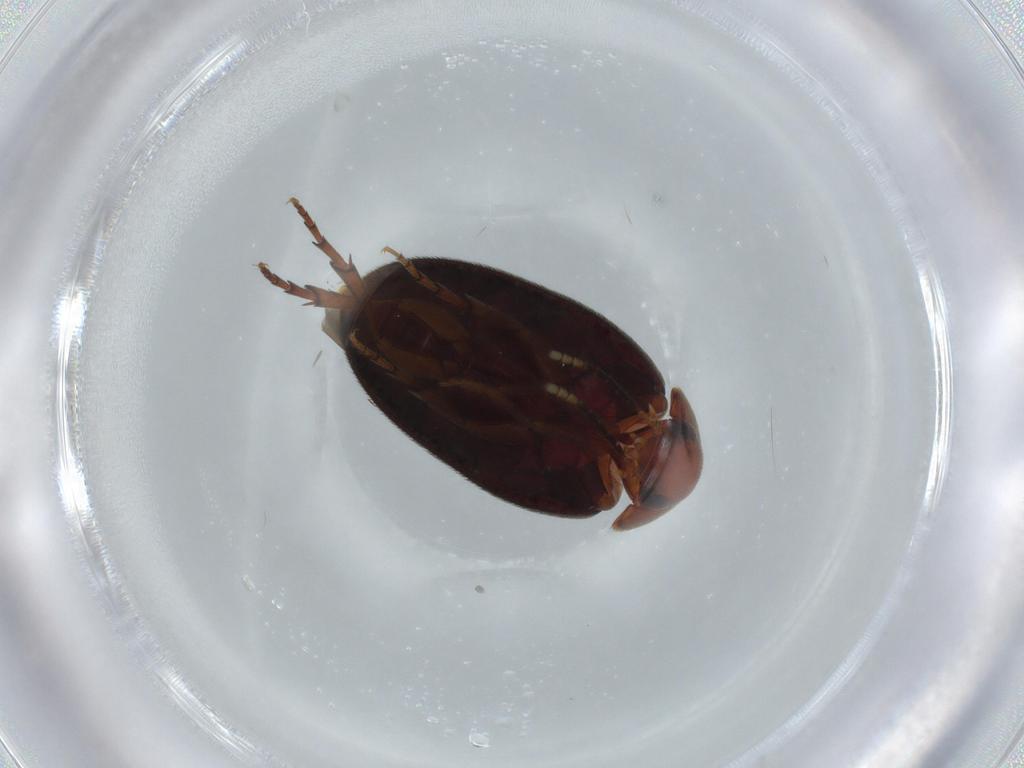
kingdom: Animalia
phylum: Arthropoda
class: Insecta
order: Coleoptera
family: Eucinetidae
